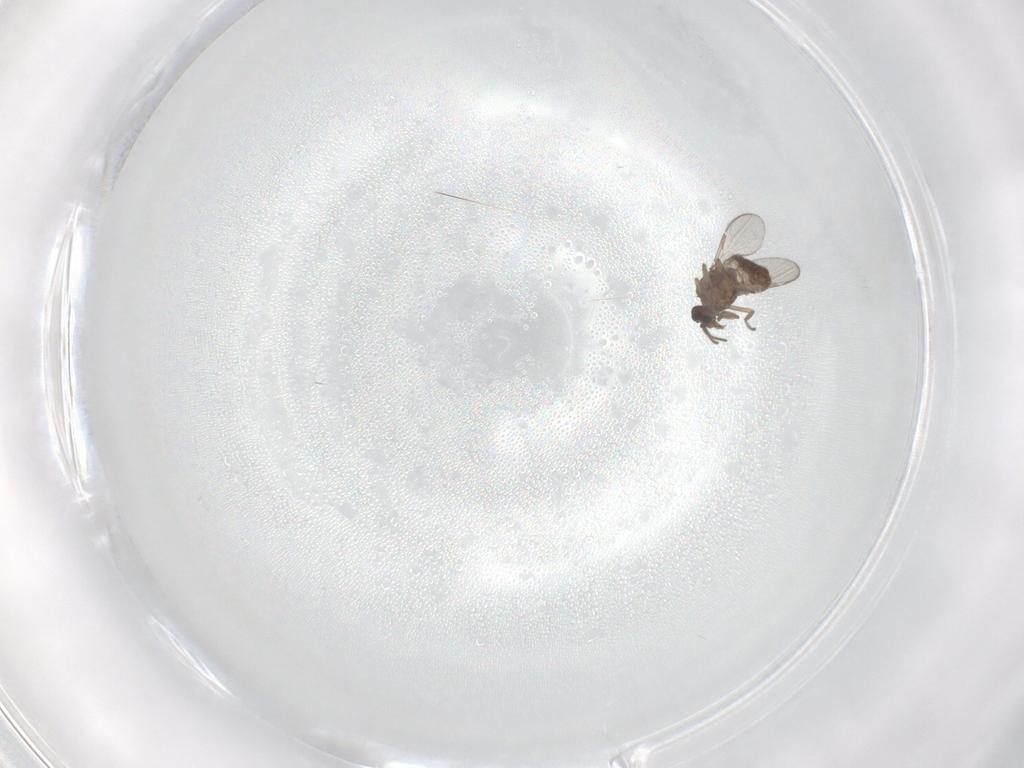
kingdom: Animalia
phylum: Arthropoda
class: Insecta
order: Diptera
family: Ceratopogonidae
